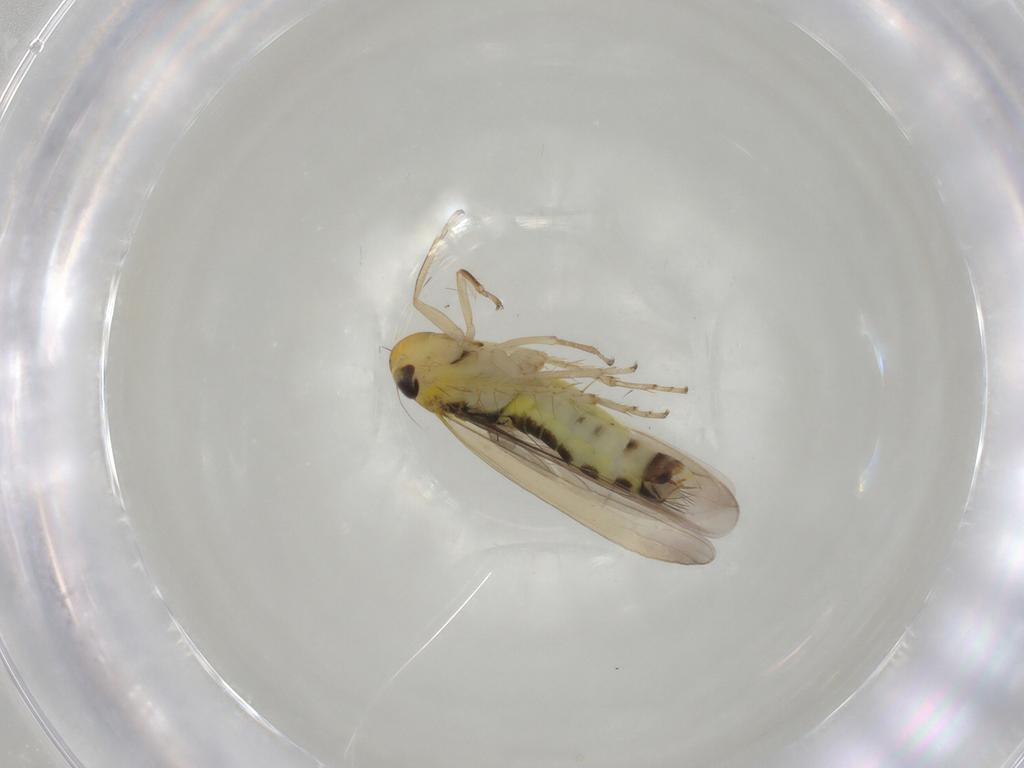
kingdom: Animalia
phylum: Arthropoda
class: Insecta
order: Hemiptera
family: Cicadellidae
